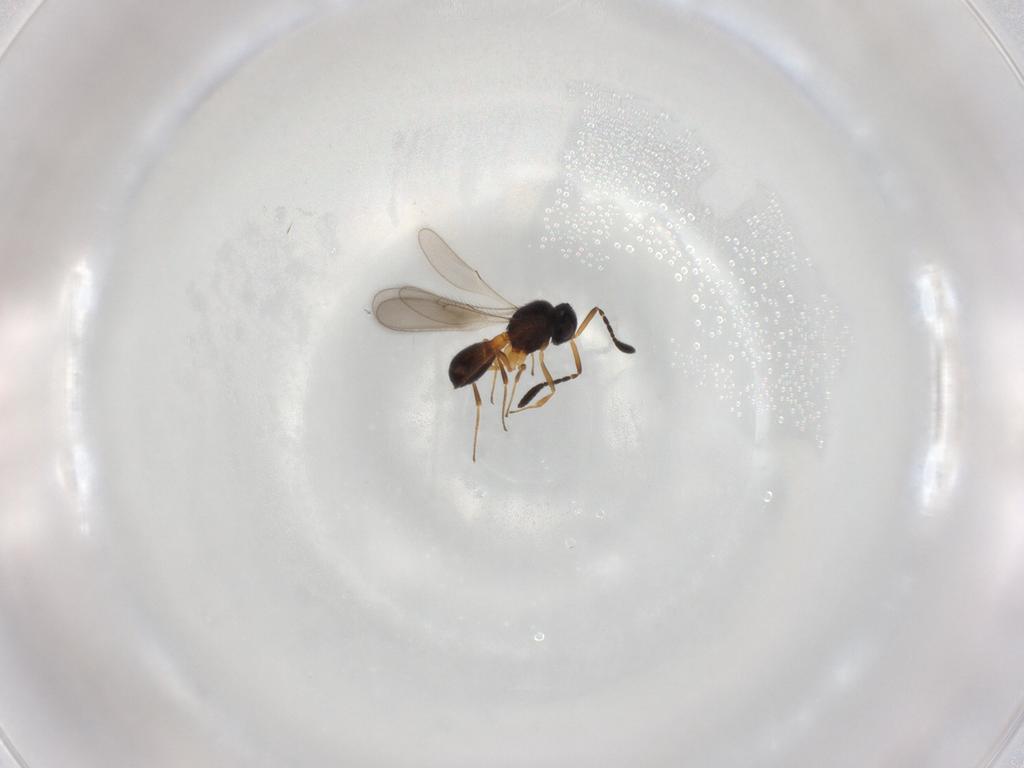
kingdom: Animalia
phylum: Arthropoda
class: Insecta
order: Hymenoptera
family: Scelionidae
